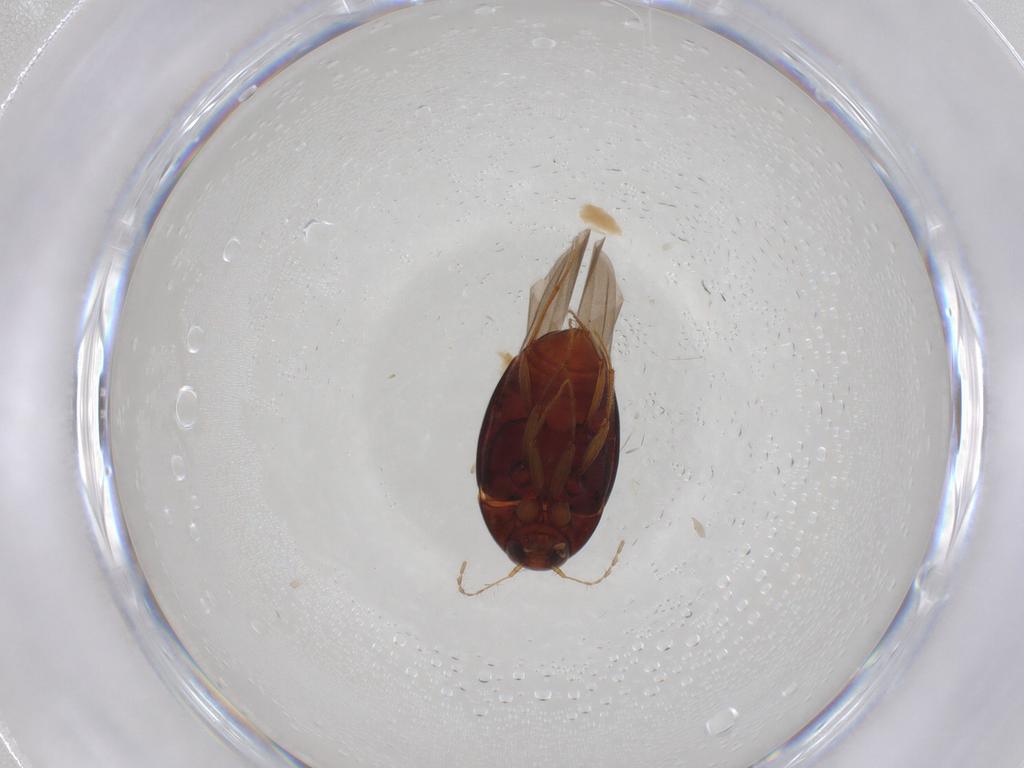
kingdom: Animalia
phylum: Arthropoda
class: Insecta
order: Coleoptera
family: Staphylinidae
